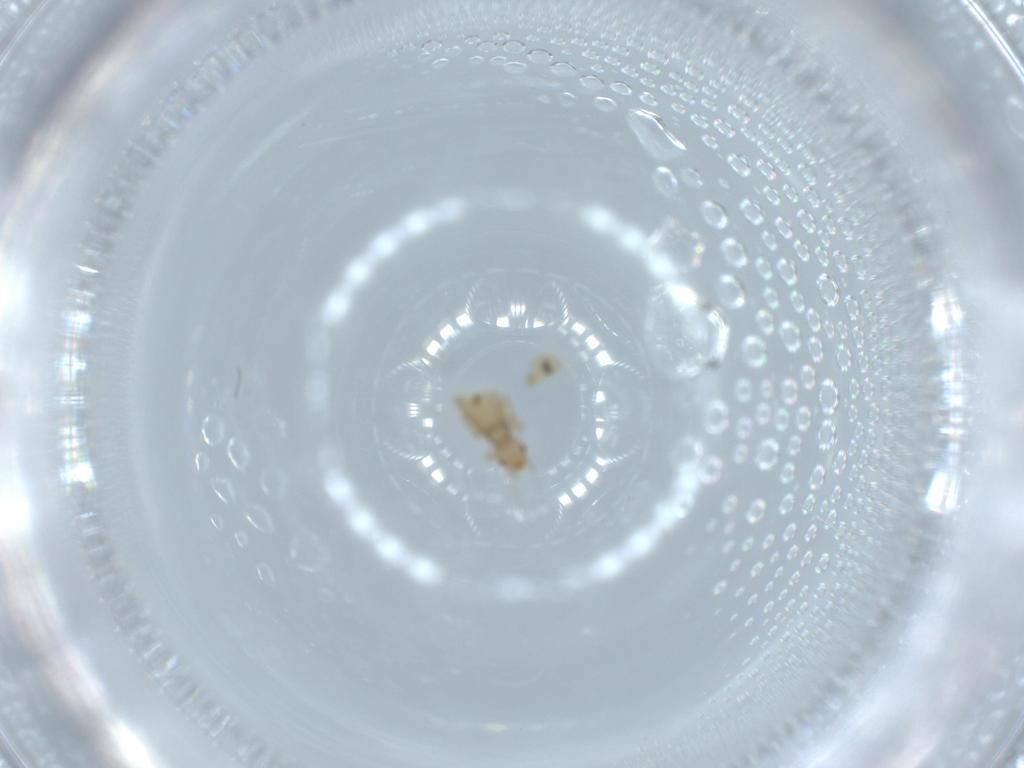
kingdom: Animalia
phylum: Arthropoda
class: Insecta
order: Psocodea
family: Liposcelididae
